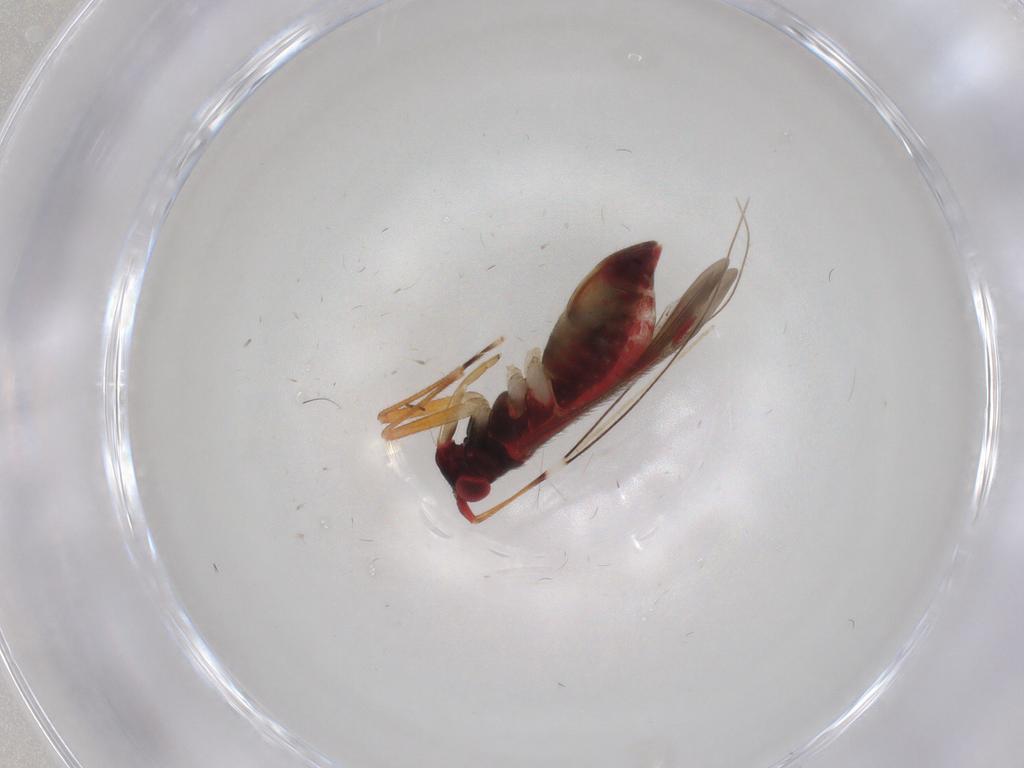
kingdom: Animalia
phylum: Arthropoda
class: Insecta
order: Hemiptera
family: Miridae
